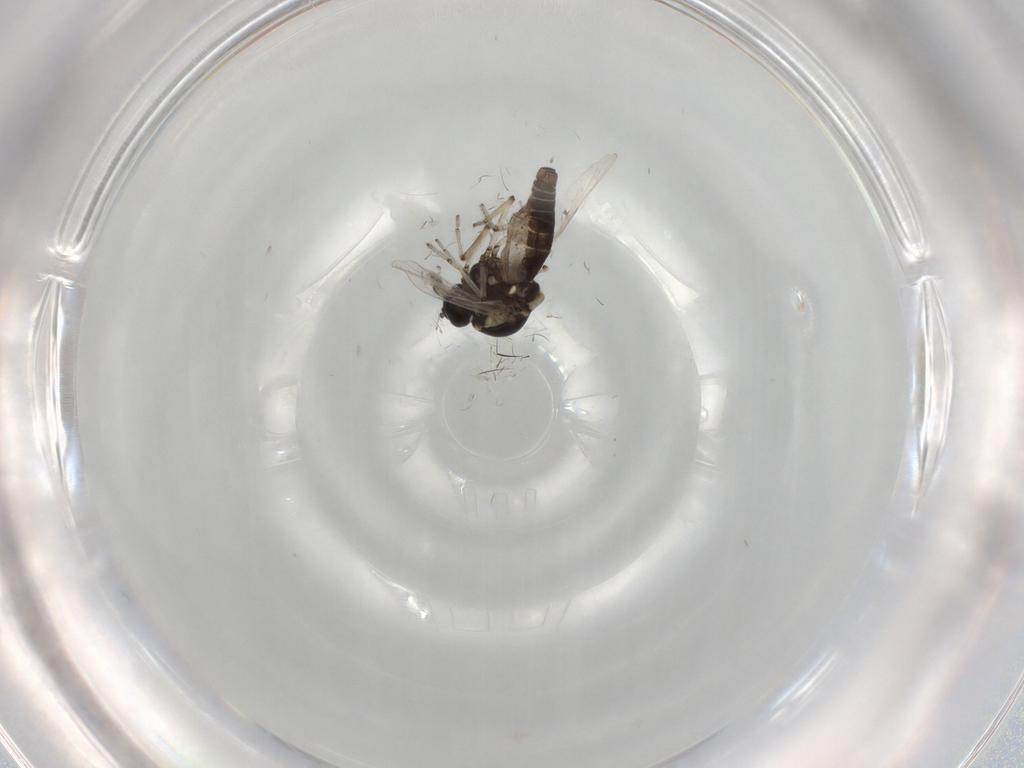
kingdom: Animalia
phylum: Arthropoda
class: Insecta
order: Diptera
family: Ceratopogonidae
